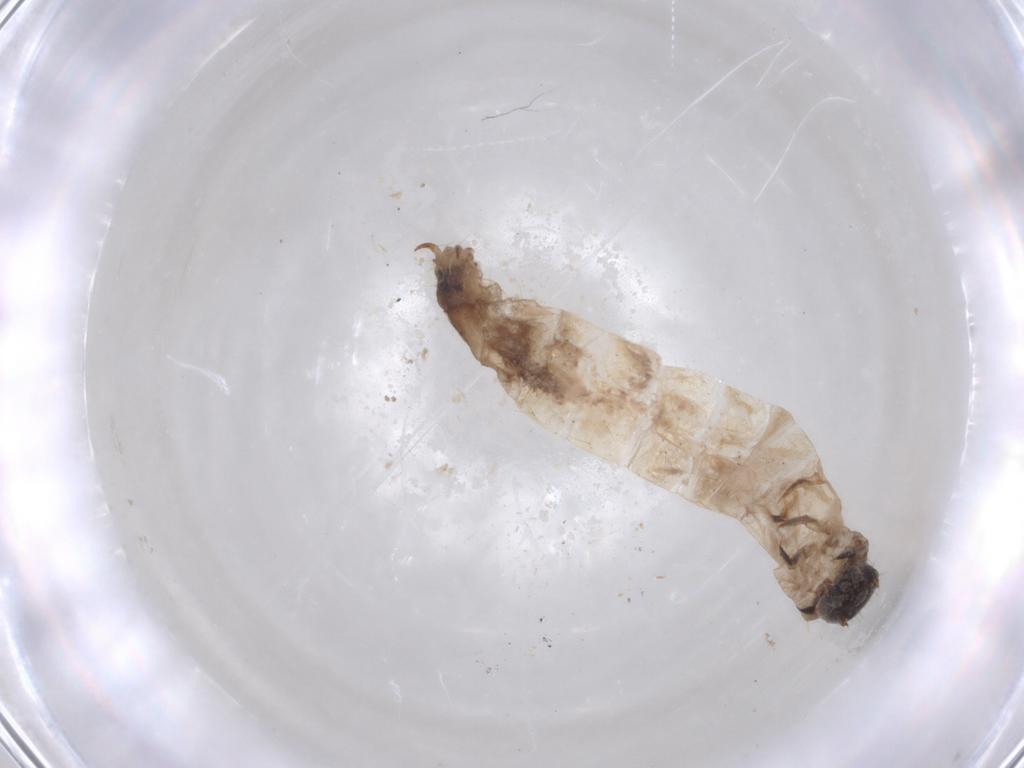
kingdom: Animalia
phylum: Arthropoda
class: Insecta
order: Coleoptera
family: Anthicidae
